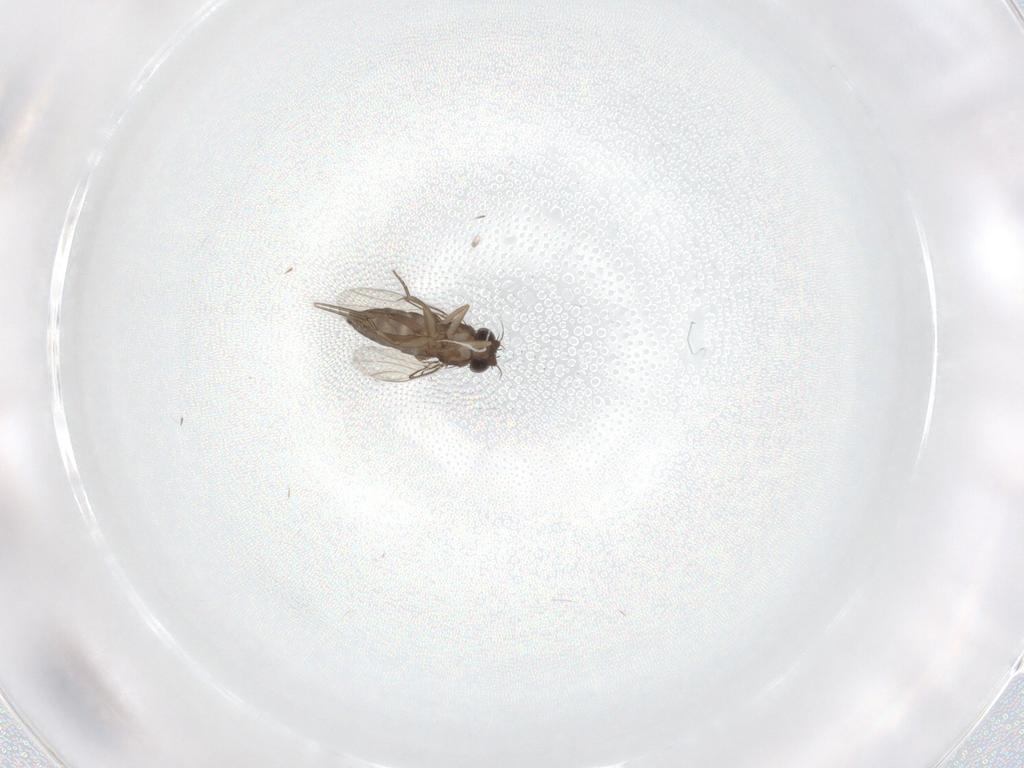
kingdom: Animalia
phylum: Arthropoda
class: Insecta
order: Diptera
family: Phoridae
